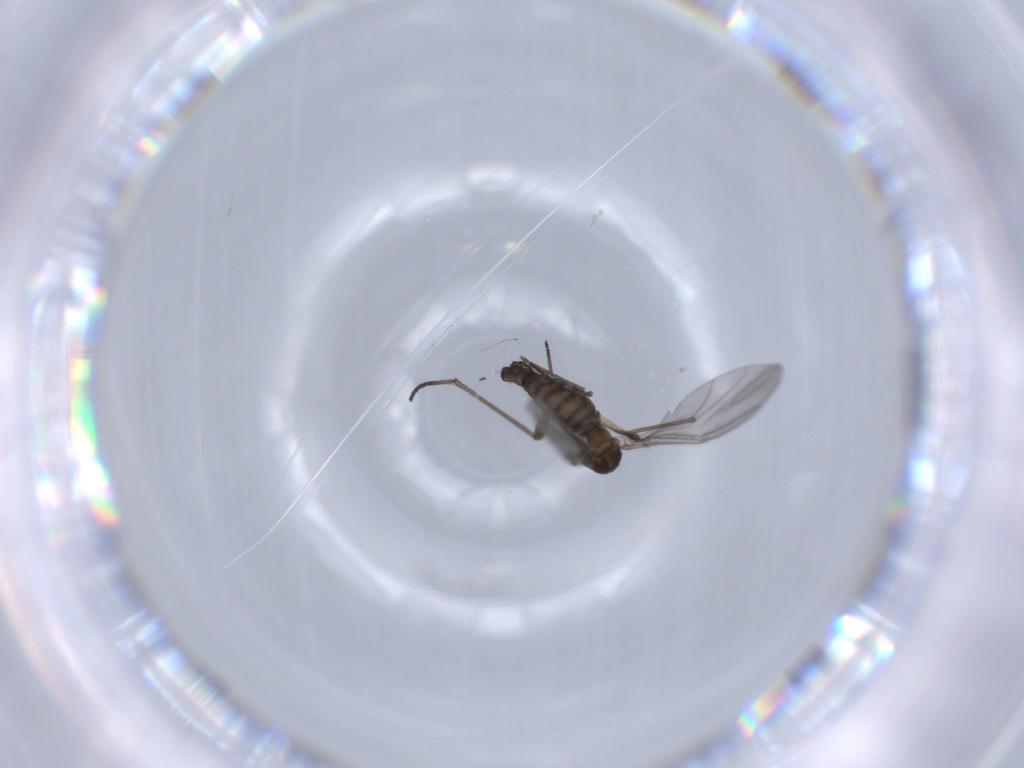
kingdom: Animalia
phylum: Arthropoda
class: Insecta
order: Diptera
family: Sciaridae
